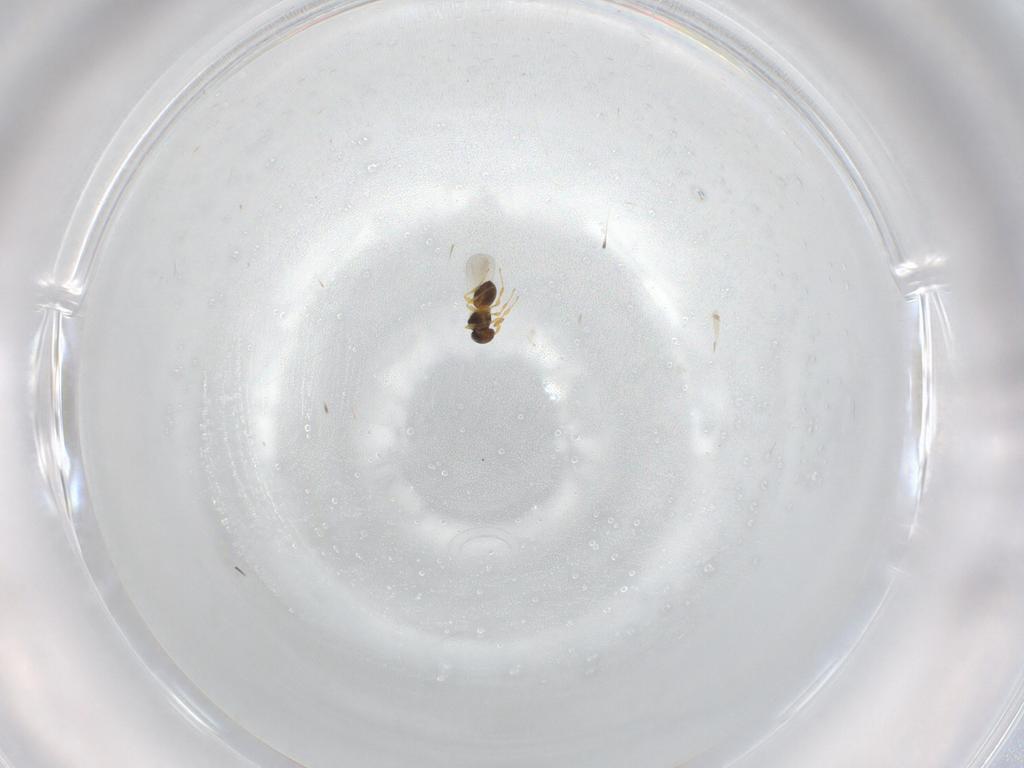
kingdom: Animalia
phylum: Arthropoda
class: Insecta
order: Hymenoptera
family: Platygastridae
